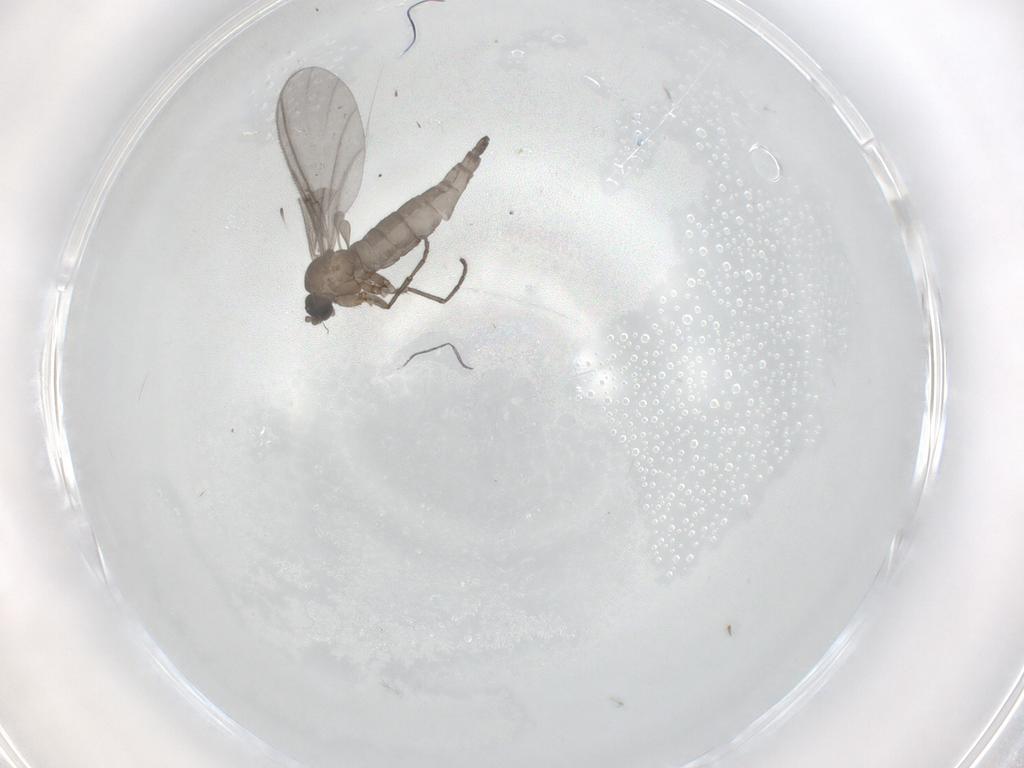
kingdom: Animalia
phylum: Arthropoda
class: Insecta
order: Diptera
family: Sciaridae
